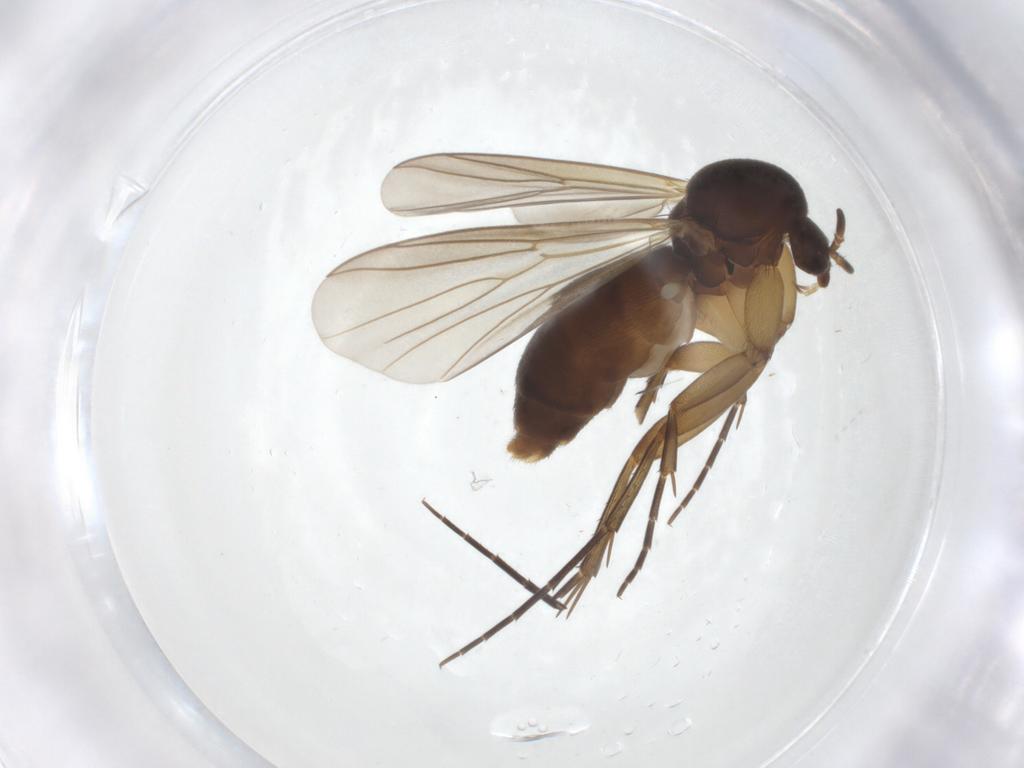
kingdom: Animalia
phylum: Arthropoda
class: Insecta
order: Diptera
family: Mycetophilidae
